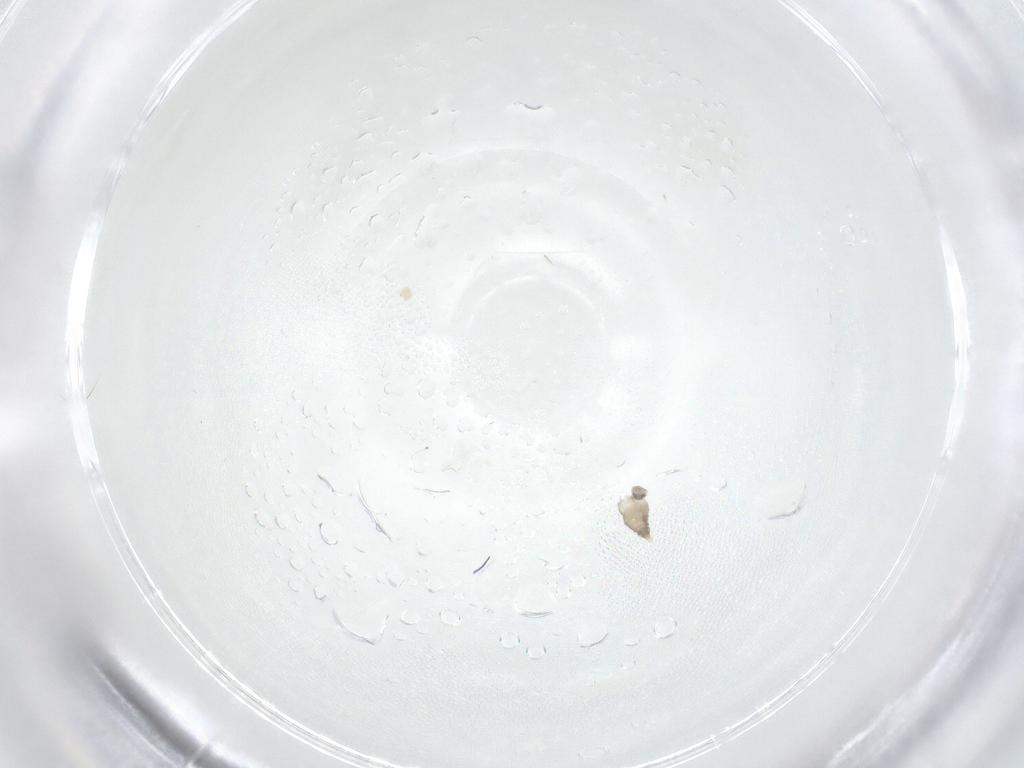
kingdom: Animalia
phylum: Arthropoda
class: Insecta
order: Diptera
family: Cecidomyiidae
